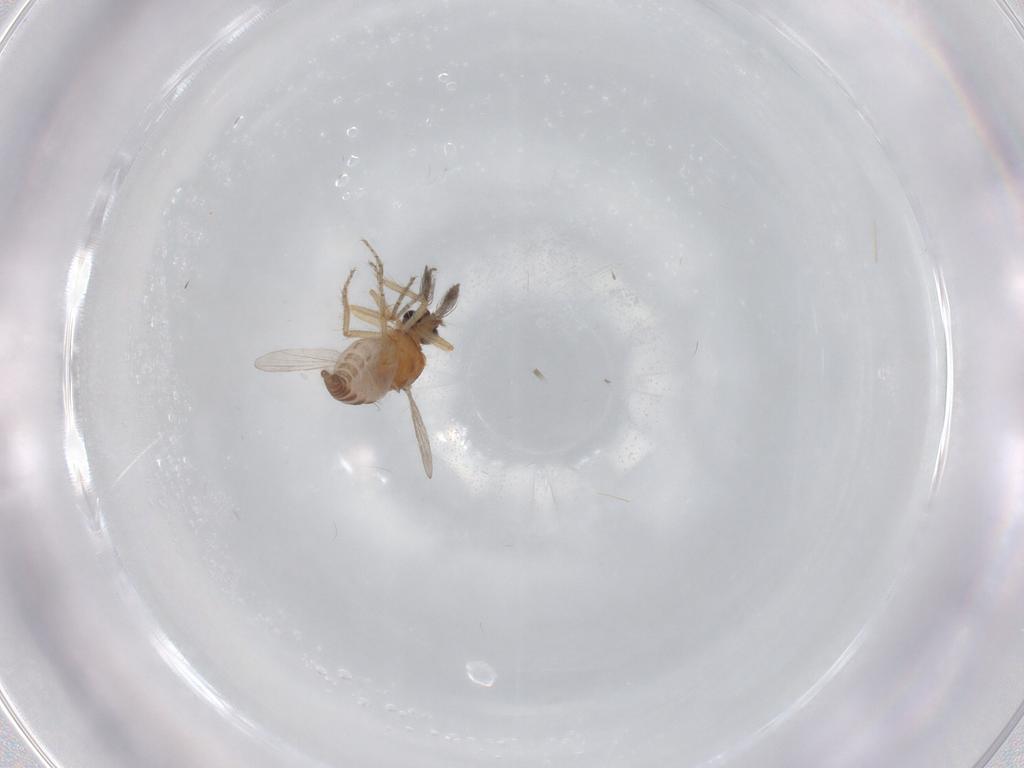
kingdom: Animalia
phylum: Arthropoda
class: Insecta
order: Diptera
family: Ceratopogonidae
